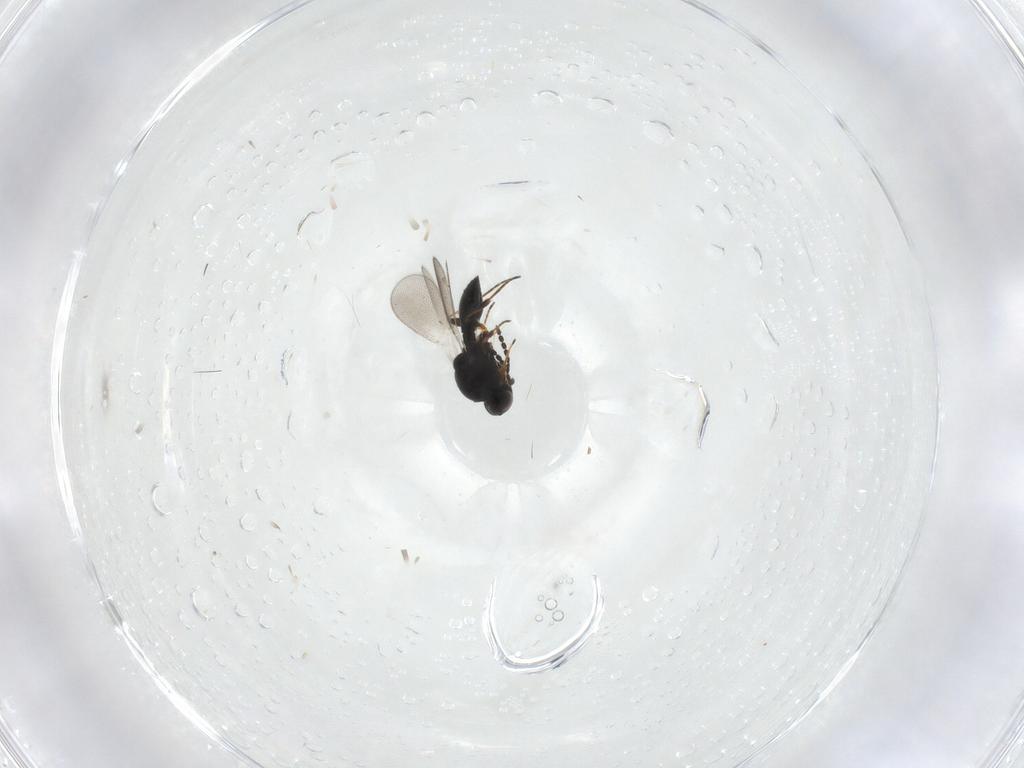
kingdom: Animalia
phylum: Arthropoda
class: Insecta
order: Hymenoptera
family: Platygastridae
